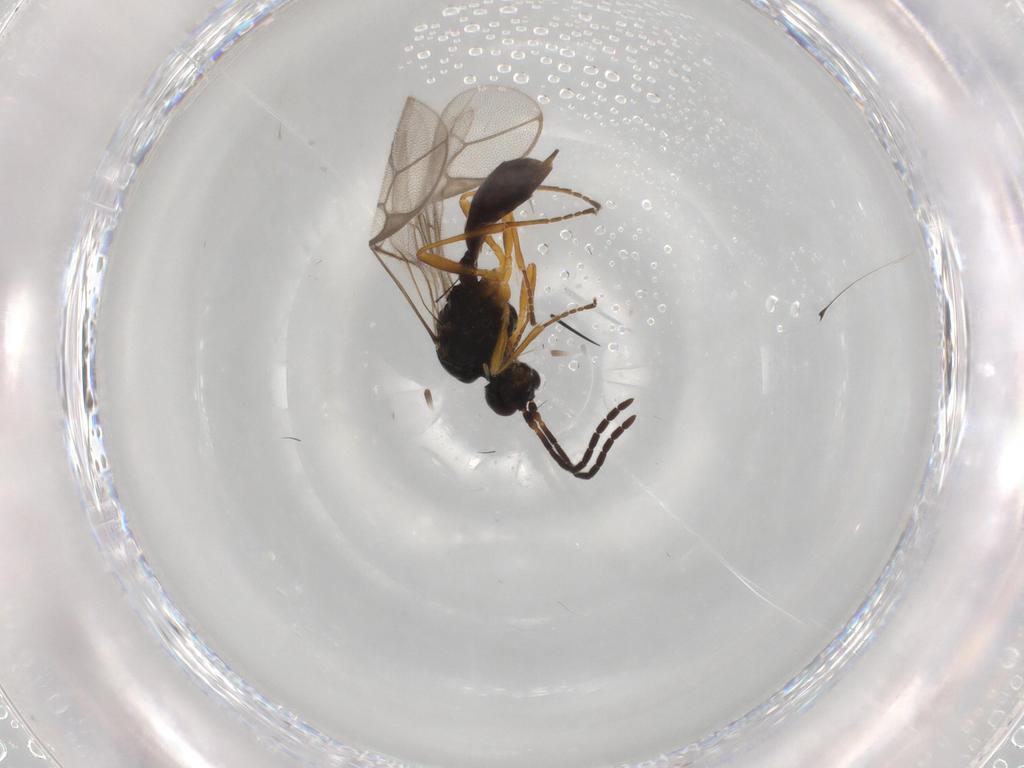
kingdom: Animalia
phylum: Arthropoda
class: Insecta
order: Hymenoptera
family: Braconidae
